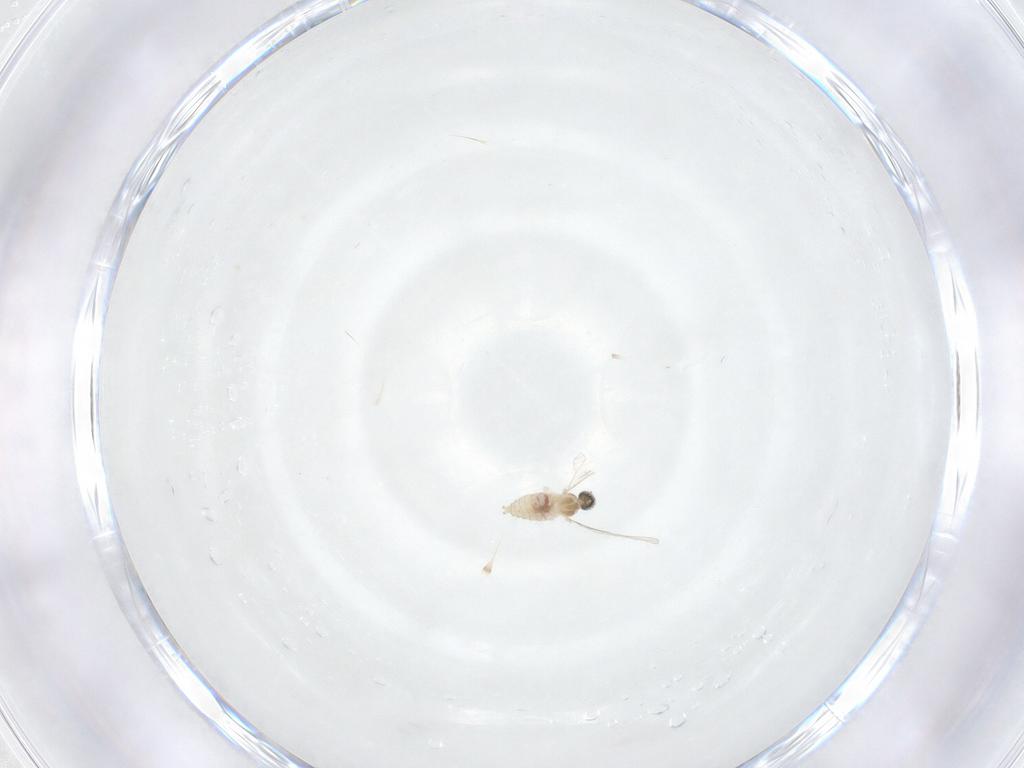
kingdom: Animalia
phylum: Arthropoda
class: Insecta
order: Diptera
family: Cecidomyiidae
